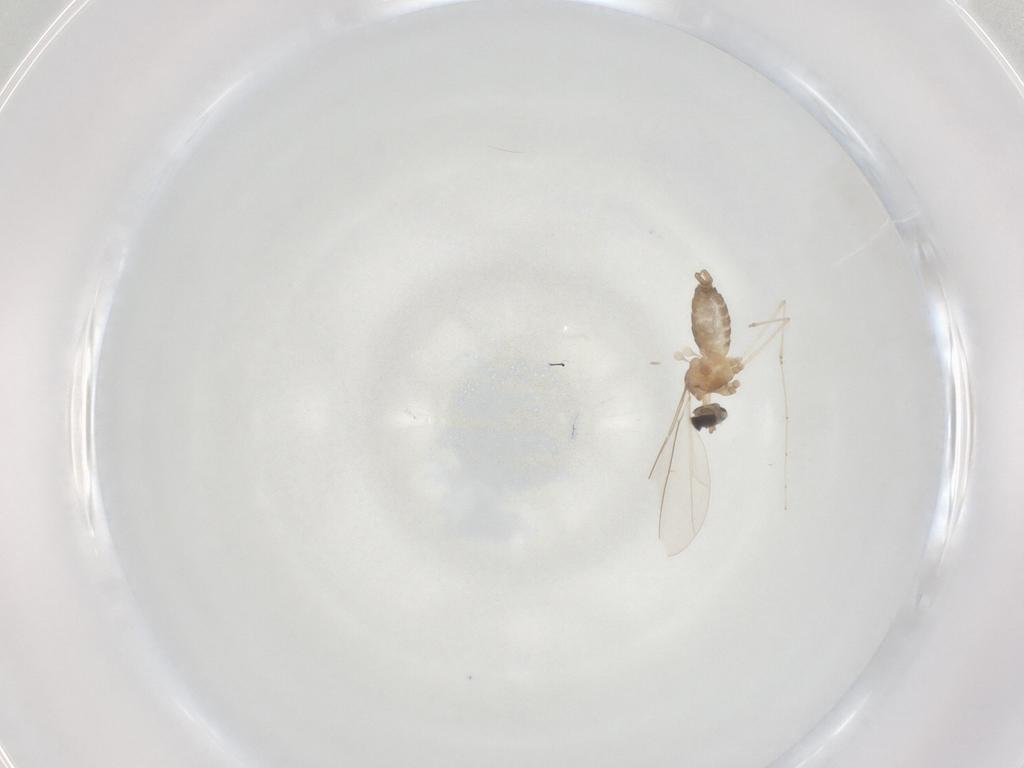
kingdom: Animalia
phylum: Arthropoda
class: Insecta
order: Diptera
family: Cecidomyiidae
